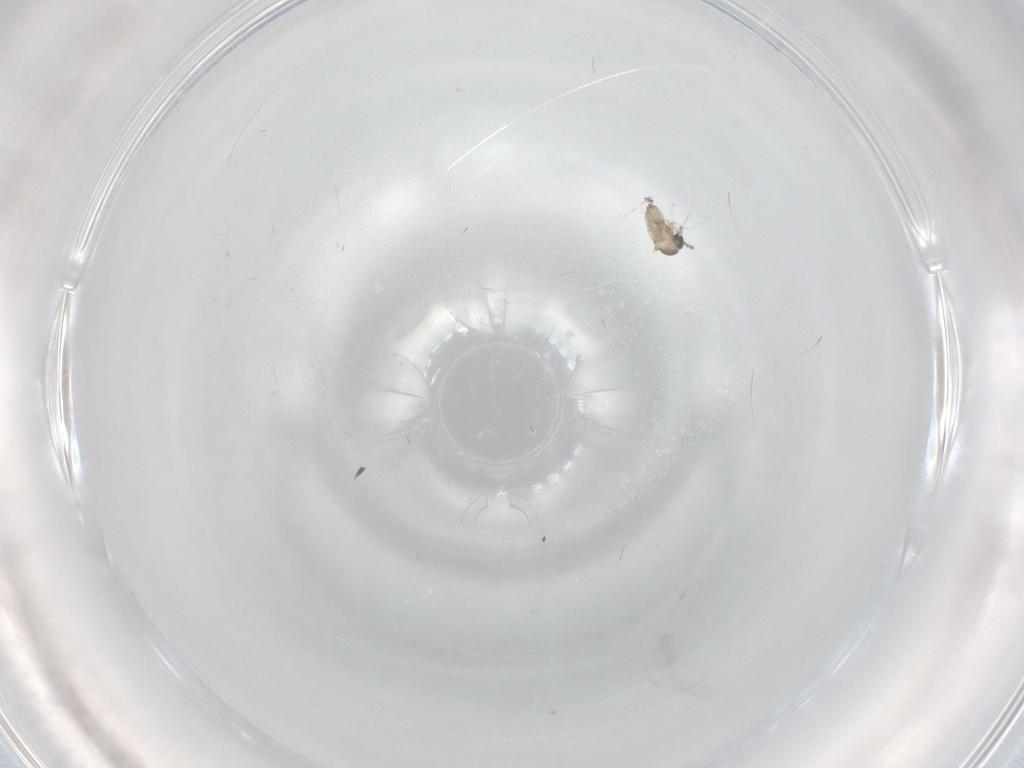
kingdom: Animalia
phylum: Arthropoda
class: Insecta
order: Diptera
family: Cecidomyiidae
